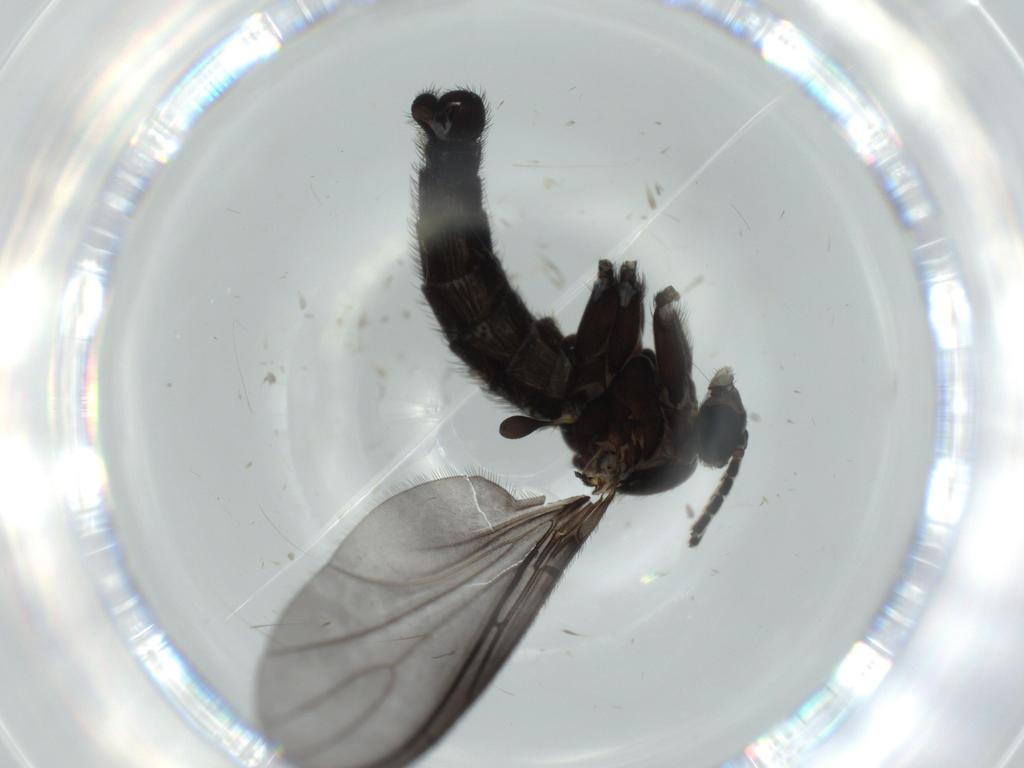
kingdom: Animalia
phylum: Arthropoda
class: Insecta
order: Diptera
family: Sciaridae
